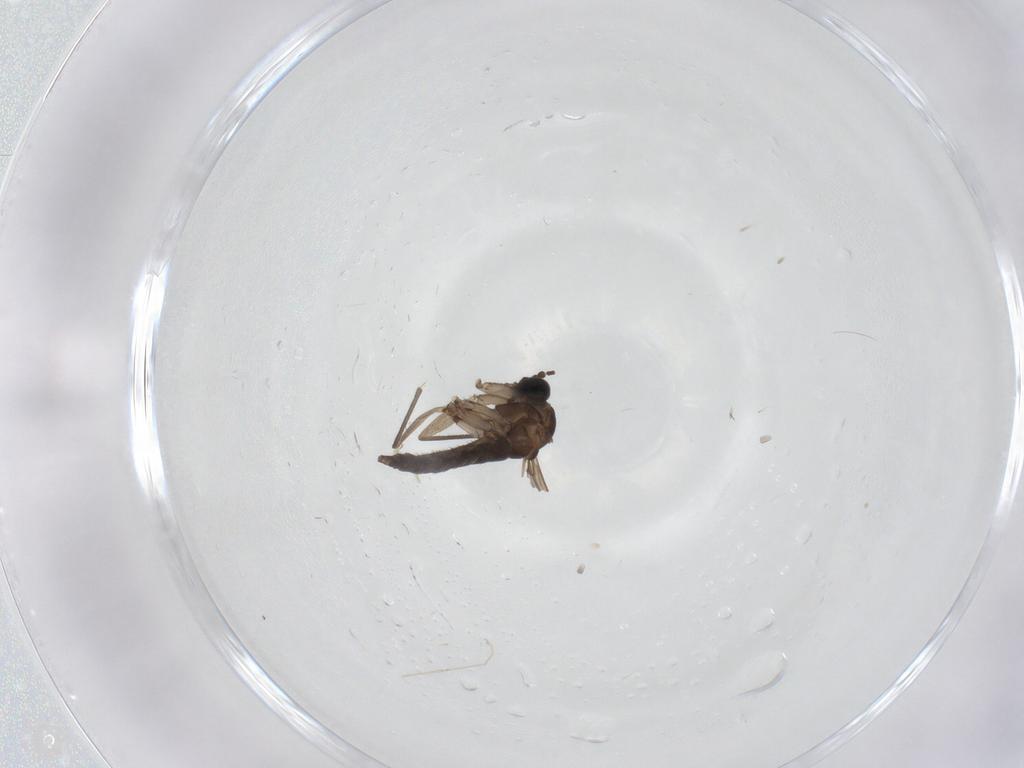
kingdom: Animalia
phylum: Arthropoda
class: Insecta
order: Diptera
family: Sciaridae
